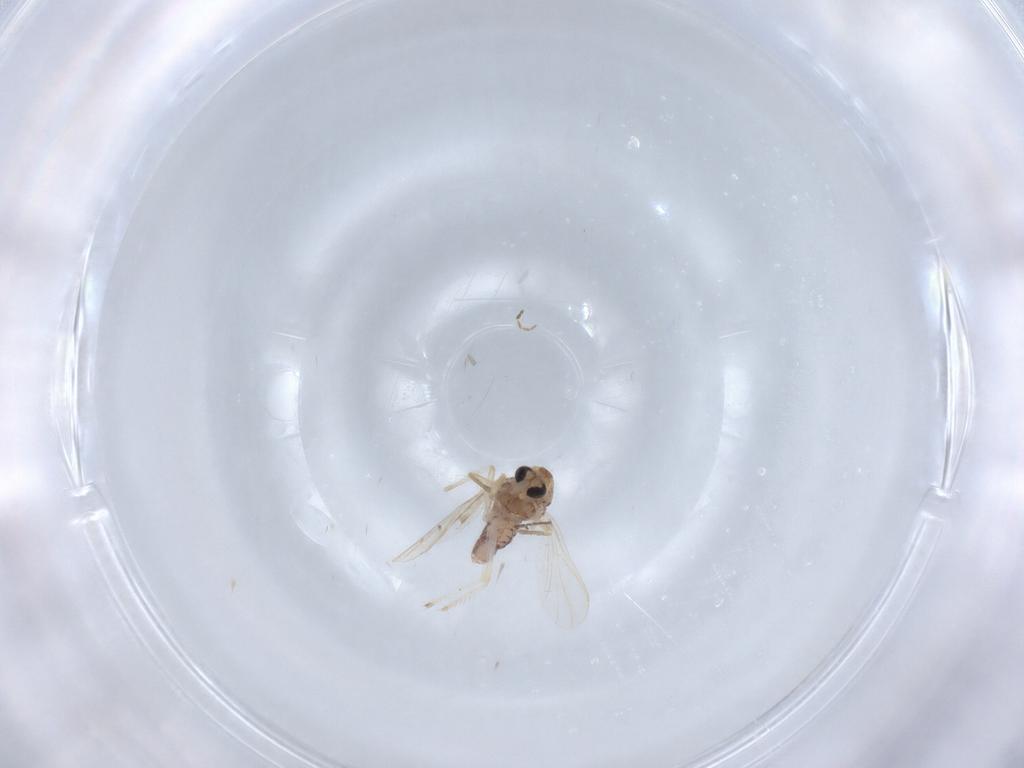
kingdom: Animalia
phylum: Arthropoda
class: Insecta
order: Diptera
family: Chironomidae
